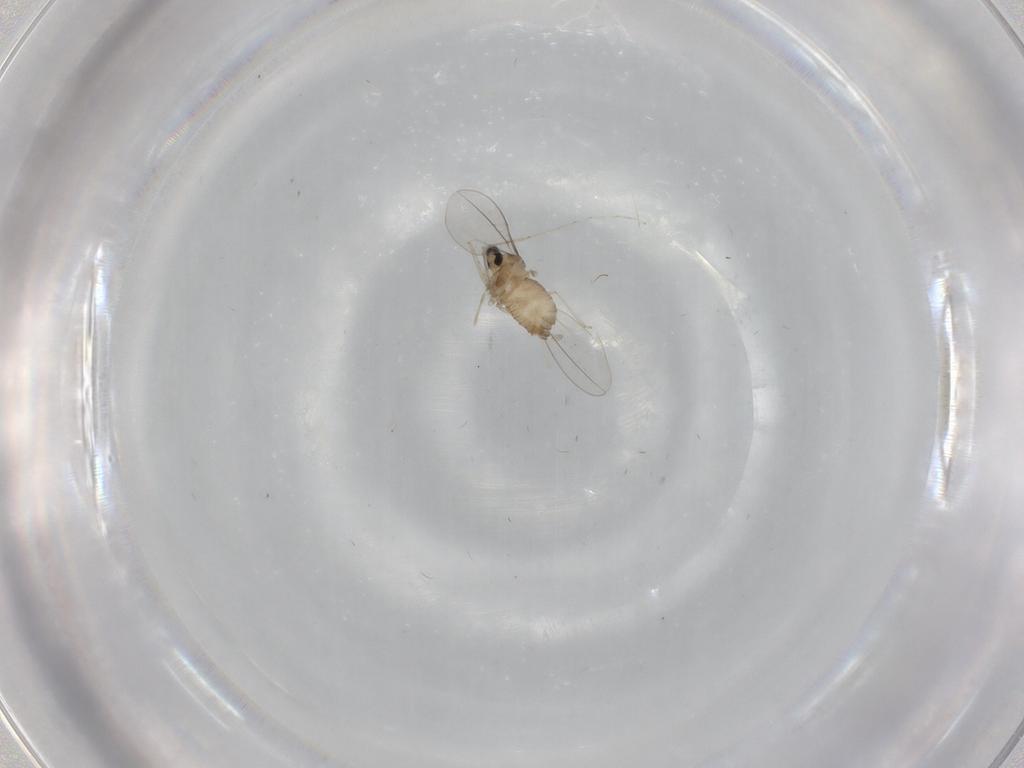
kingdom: Animalia
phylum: Arthropoda
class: Insecta
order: Diptera
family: Cecidomyiidae
